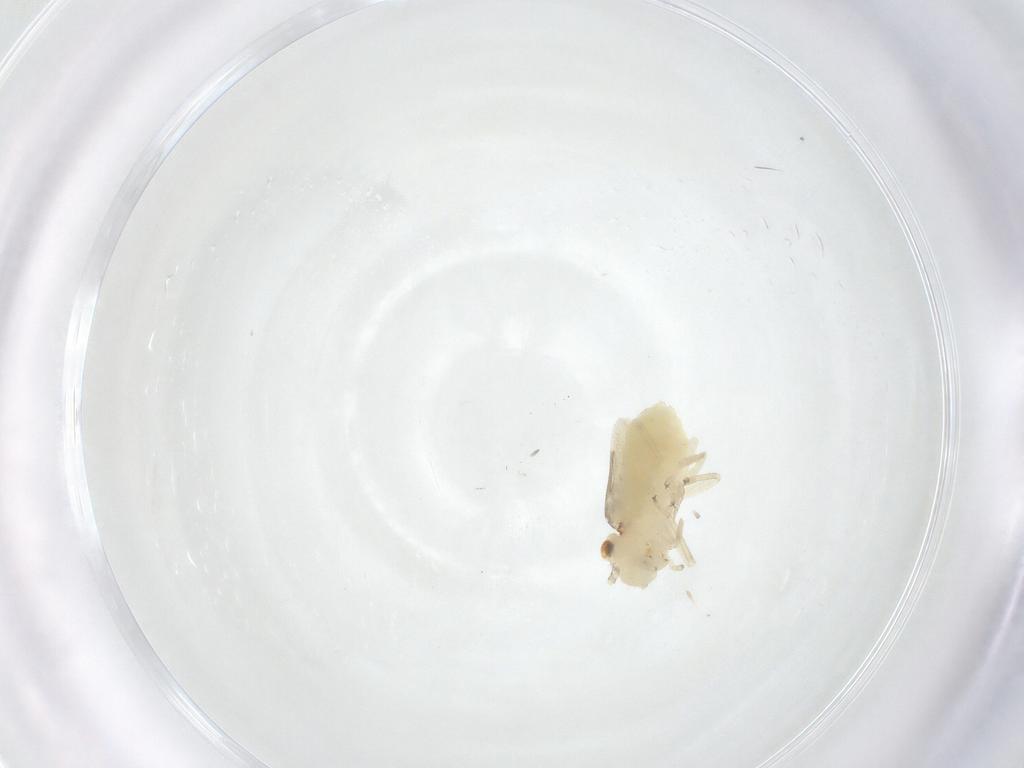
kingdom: Animalia
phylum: Arthropoda
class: Insecta
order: Psocodea
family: Caeciliusidae
